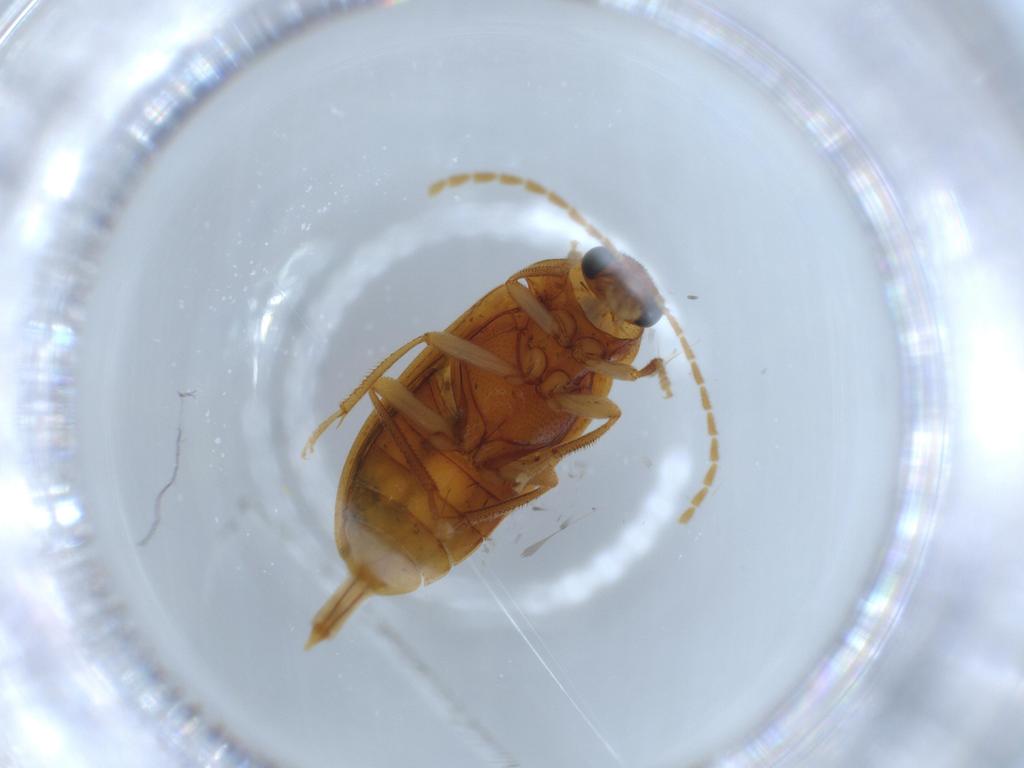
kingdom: Animalia
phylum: Arthropoda
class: Insecta
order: Coleoptera
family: Ptilodactylidae
